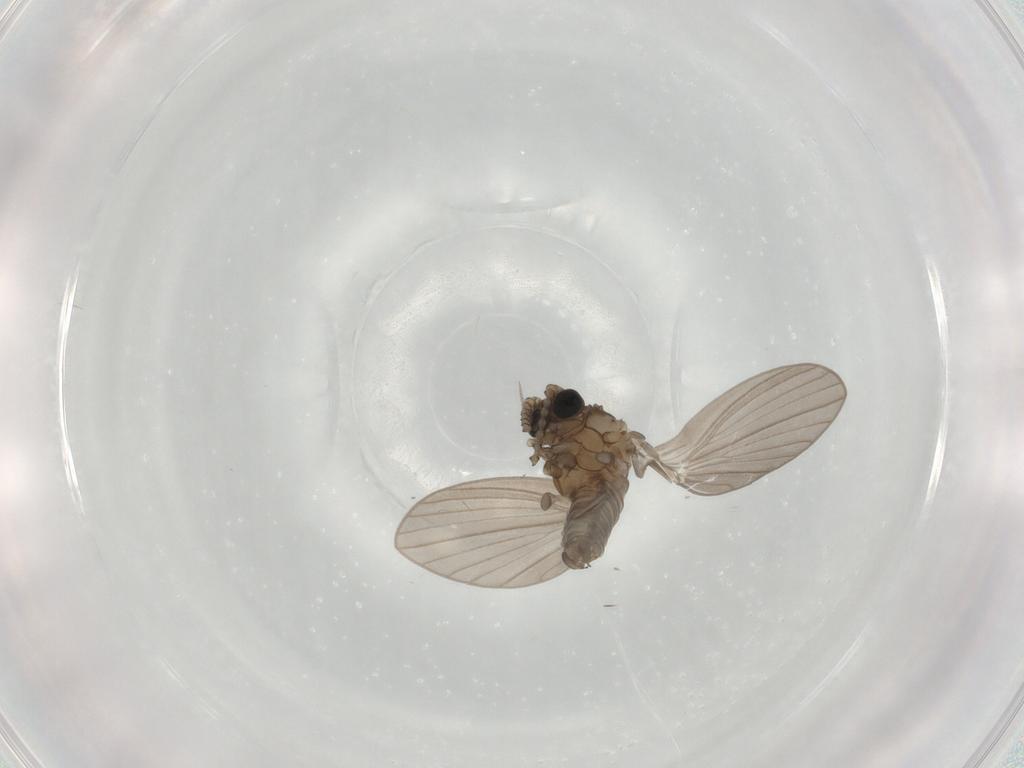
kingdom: Animalia
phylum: Arthropoda
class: Insecta
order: Diptera
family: Psychodidae
